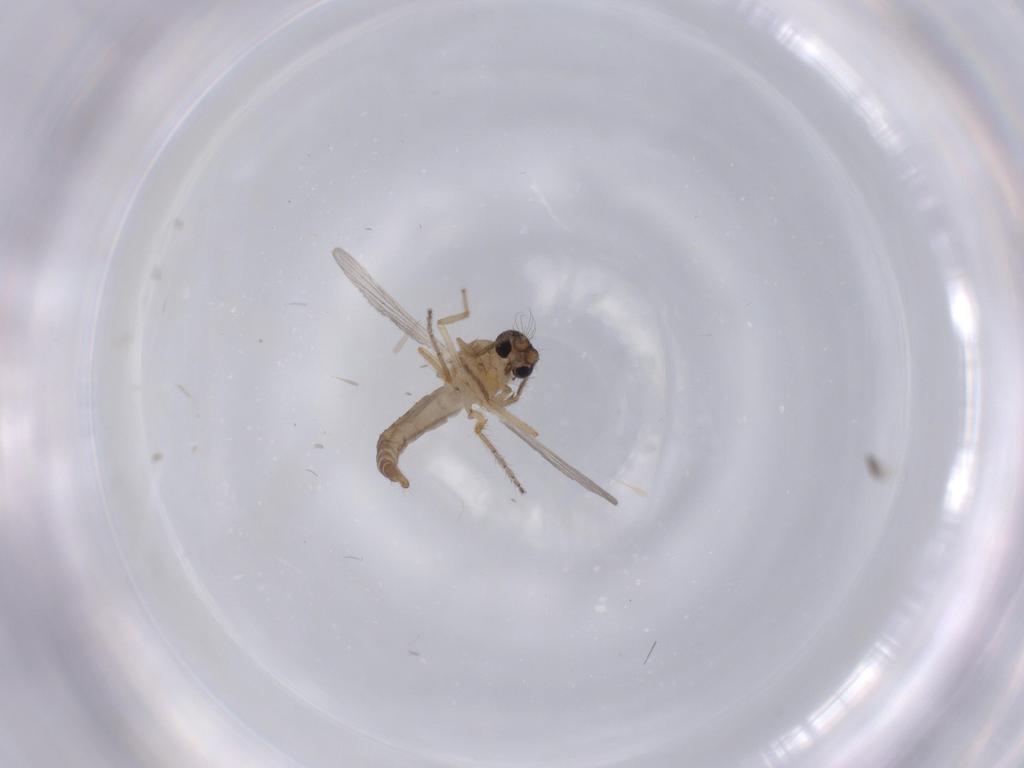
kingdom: Animalia
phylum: Arthropoda
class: Insecta
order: Diptera
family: Ceratopogonidae
